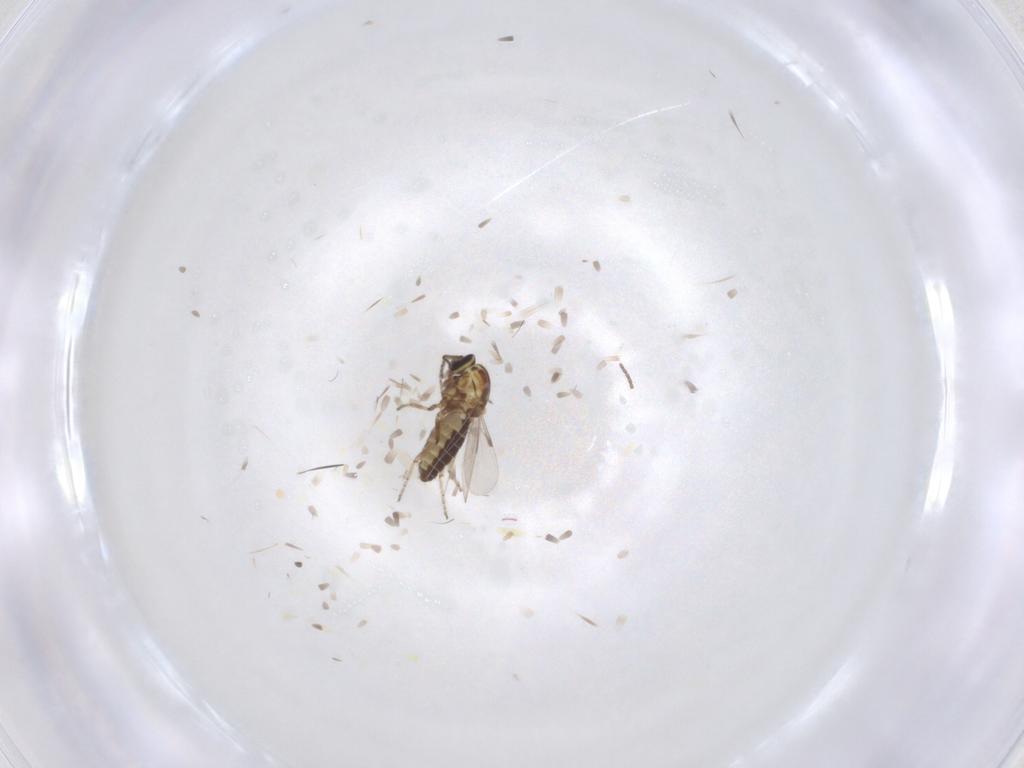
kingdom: Animalia
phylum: Arthropoda
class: Insecta
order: Diptera
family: Ceratopogonidae
